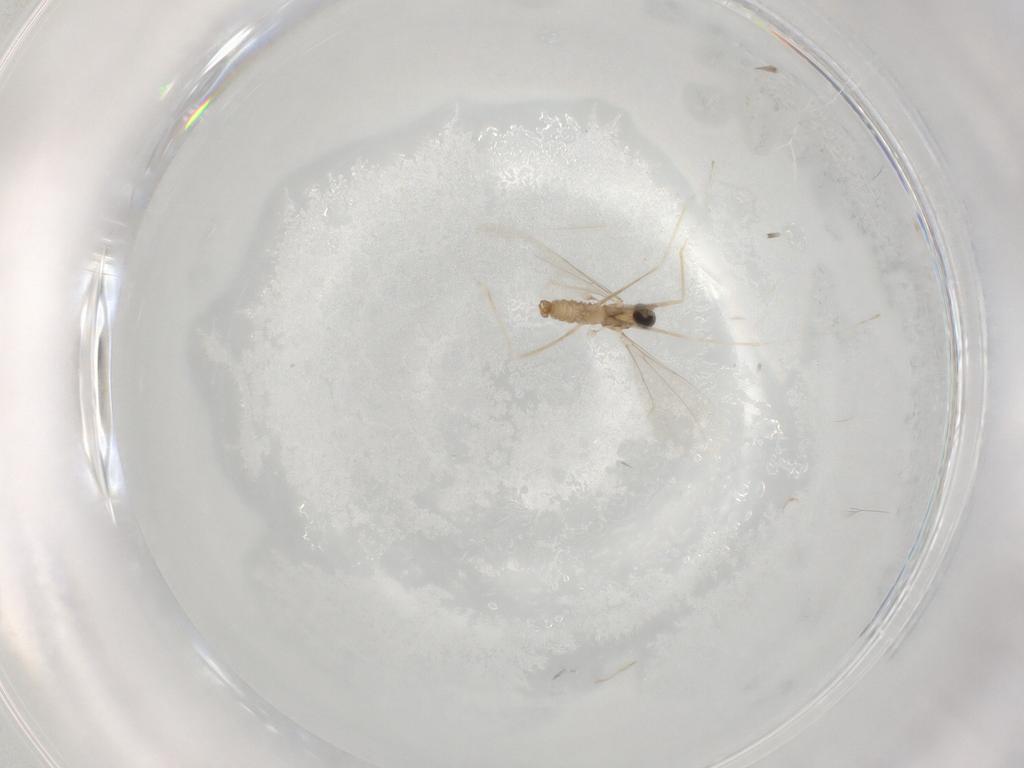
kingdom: Animalia
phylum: Arthropoda
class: Insecta
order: Diptera
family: Cecidomyiidae
